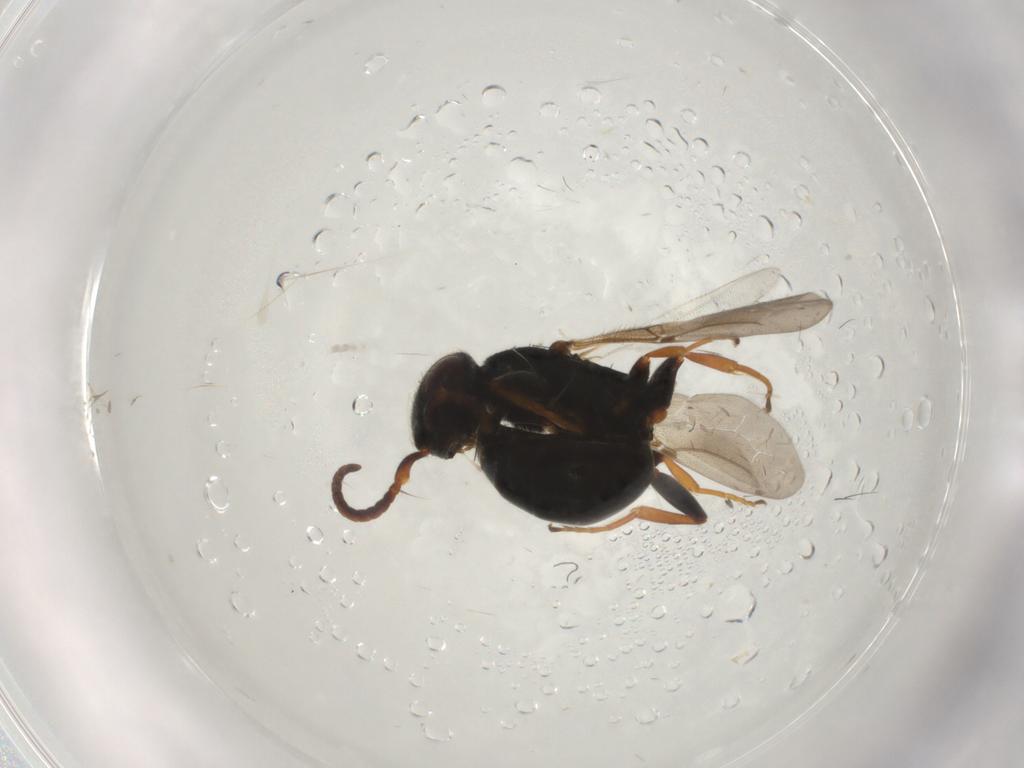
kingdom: Animalia
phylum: Arthropoda
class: Insecta
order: Hymenoptera
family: Bethylidae
